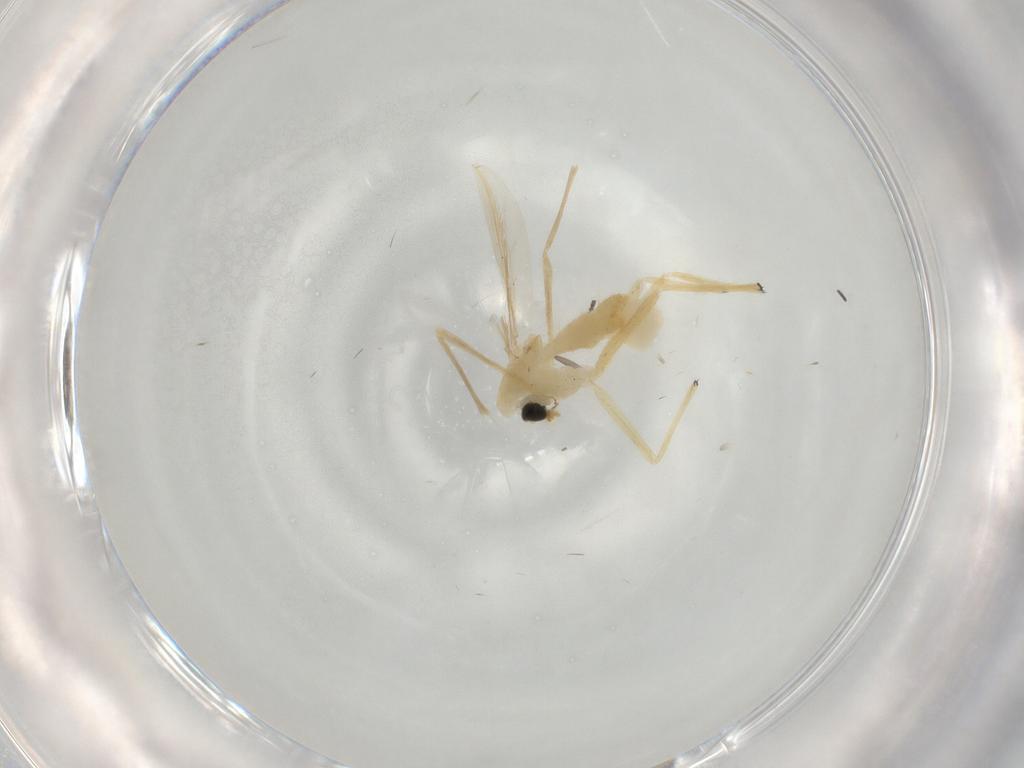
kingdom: Animalia
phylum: Arthropoda
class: Insecta
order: Diptera
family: Chironomidae
